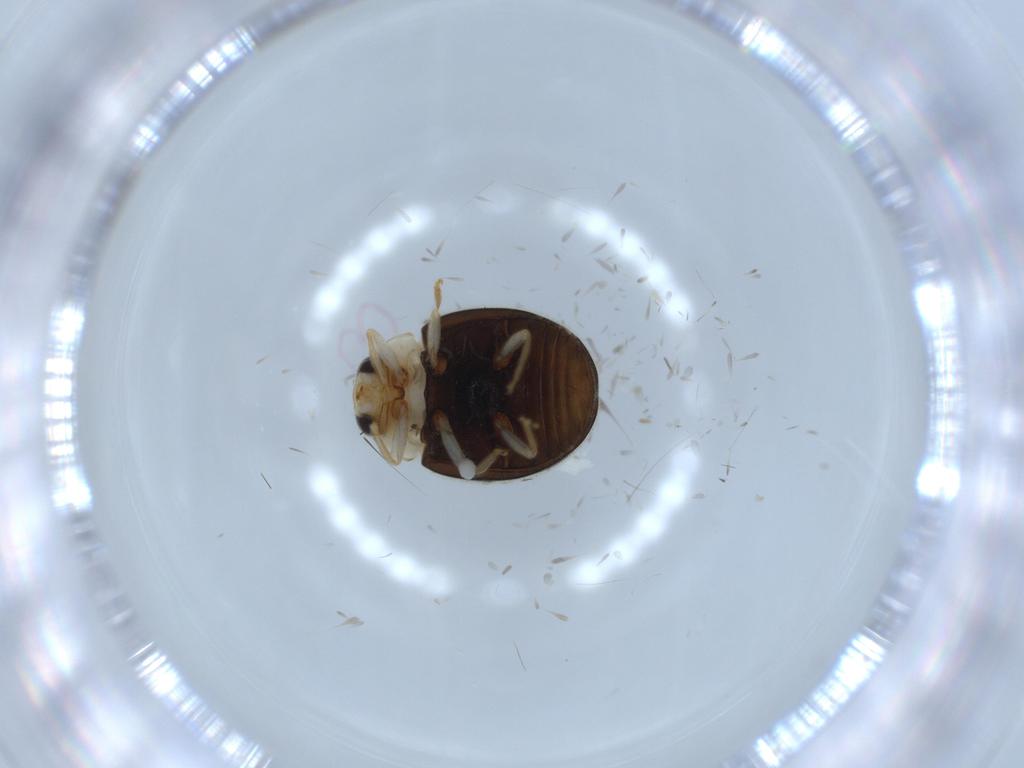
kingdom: Animalia
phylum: Arthropoda
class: Insecta
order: Coleoptera
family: Coccinellidae
